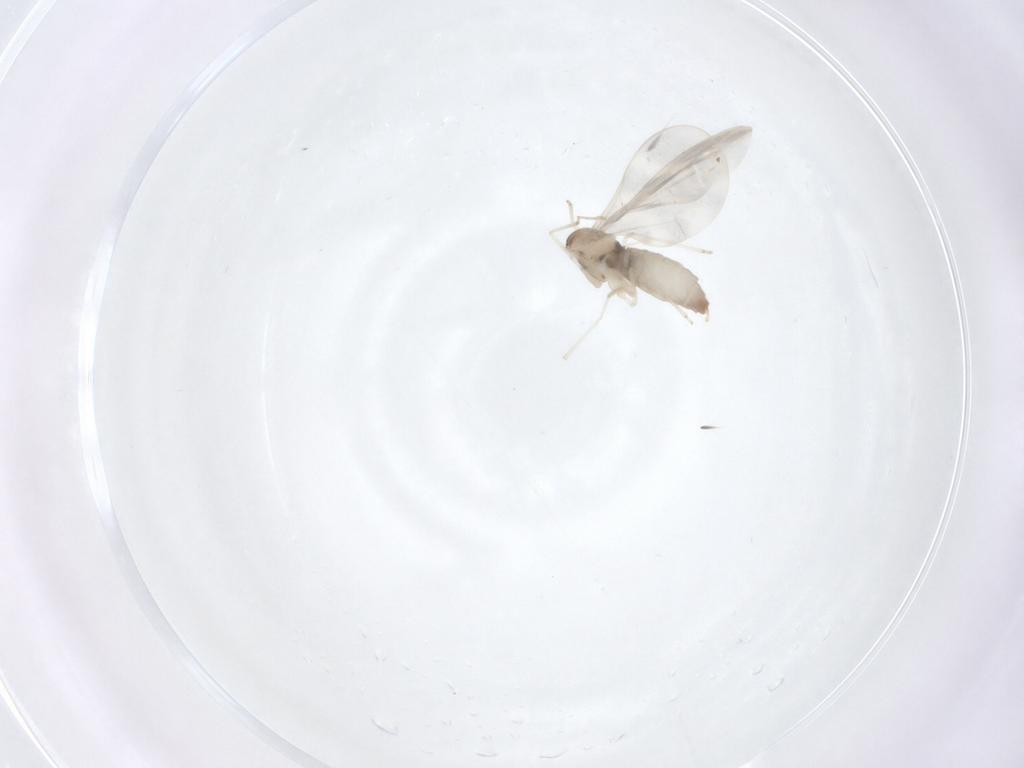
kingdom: Animalia
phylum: Arthropoda
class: Insecta
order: Diptera
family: Cecidomyiidae
